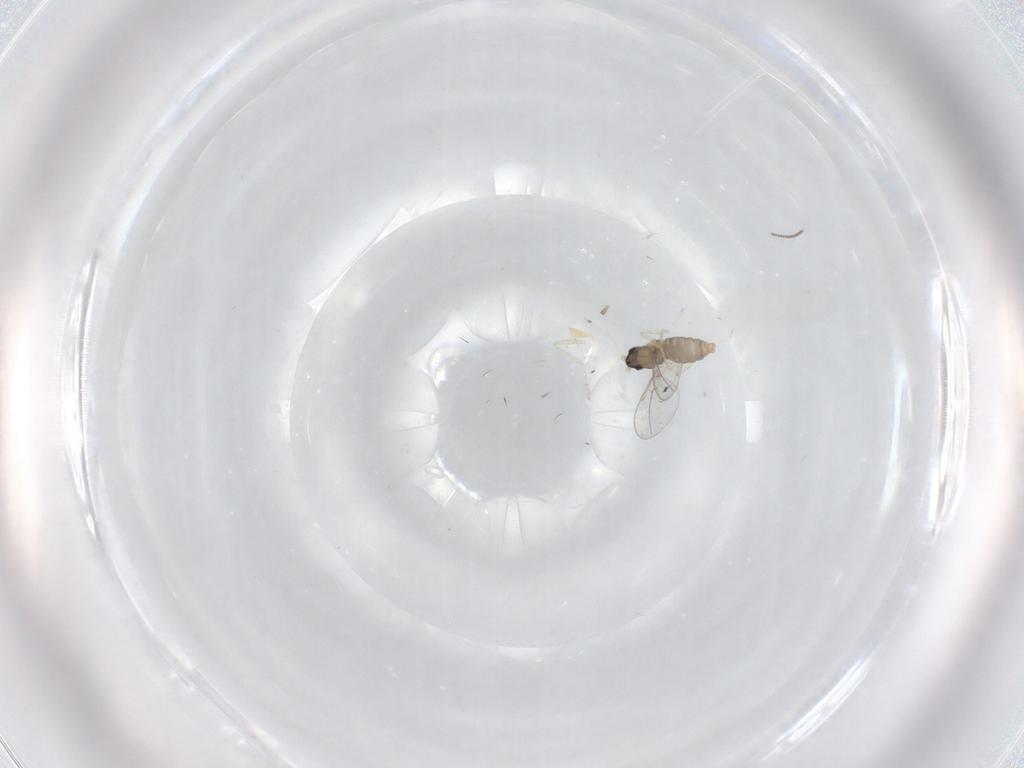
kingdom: Animalia
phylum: Arthropoda
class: Insecta
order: Diptera
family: Cecidomyiidae
